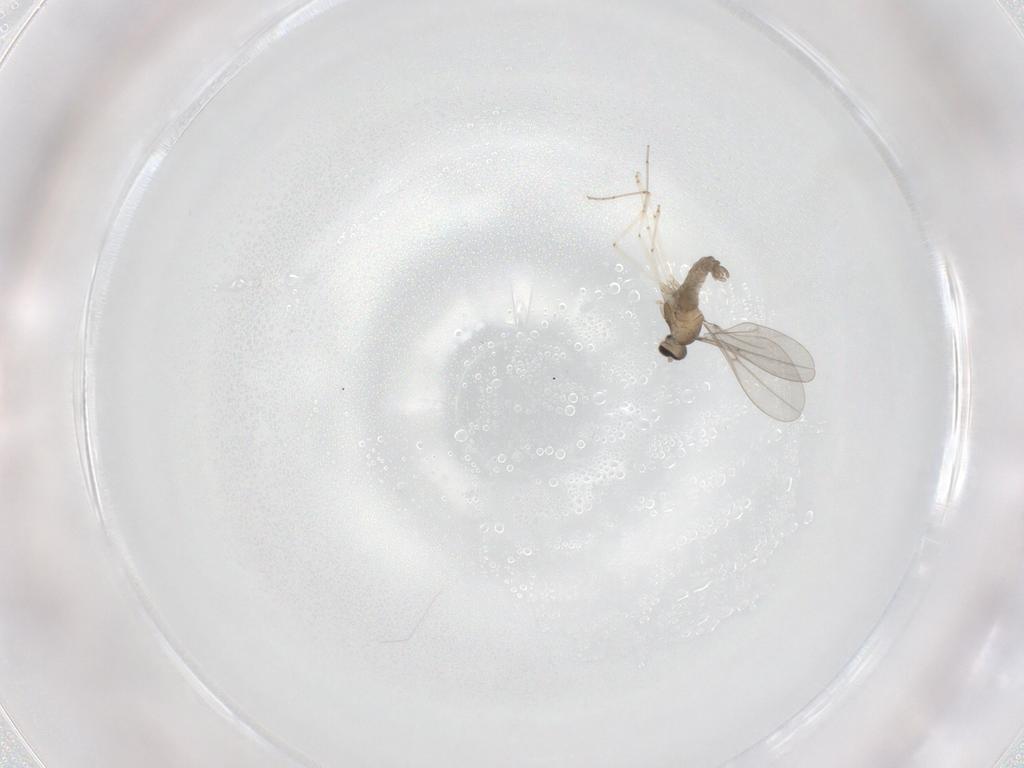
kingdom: Animalia
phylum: Arthropoda
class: Insecta
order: Diptera
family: Cecidomyiidae
